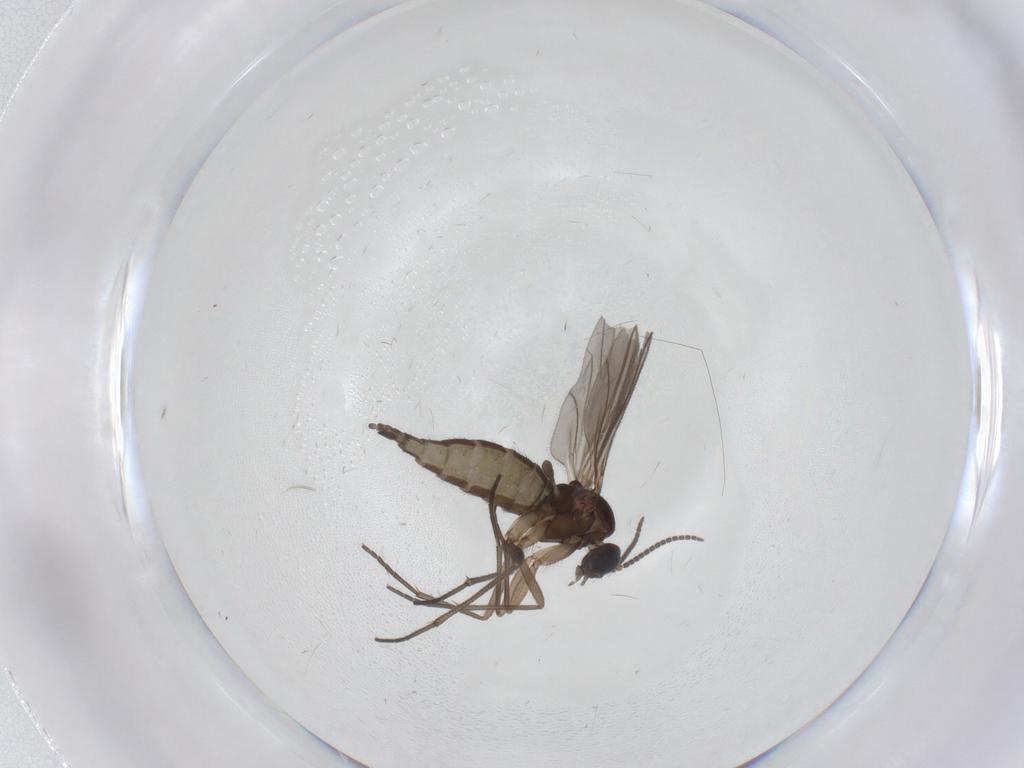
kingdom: Animalia
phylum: Arthropoda
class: Insecta
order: Diptera
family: Sciaridae
